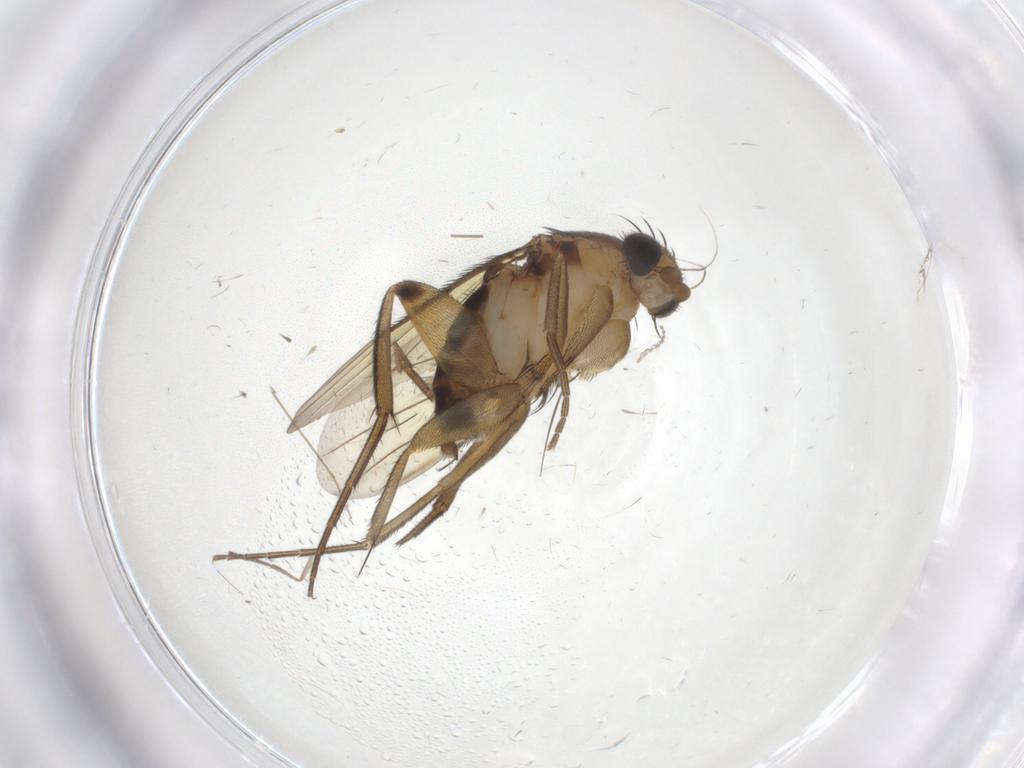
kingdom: Animalia
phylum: Arthropoda
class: Insecta
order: Diptera
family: Phoridae
